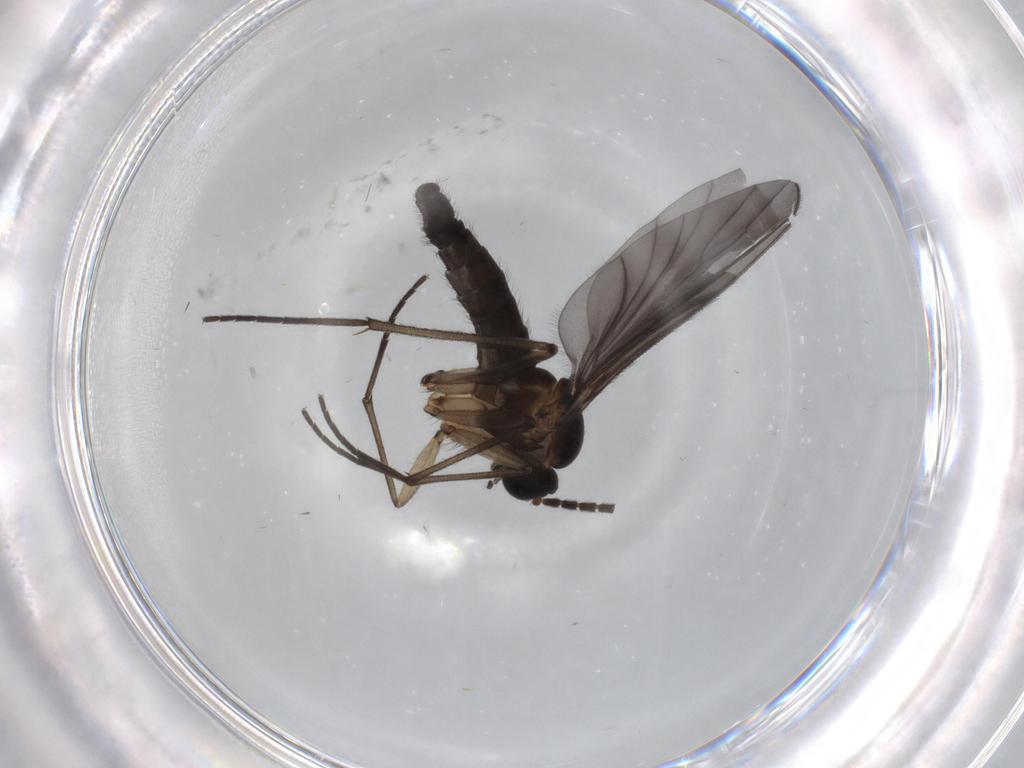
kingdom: Animalia
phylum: Arthropoda
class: Insecta
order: Diptera
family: Sciaridae
